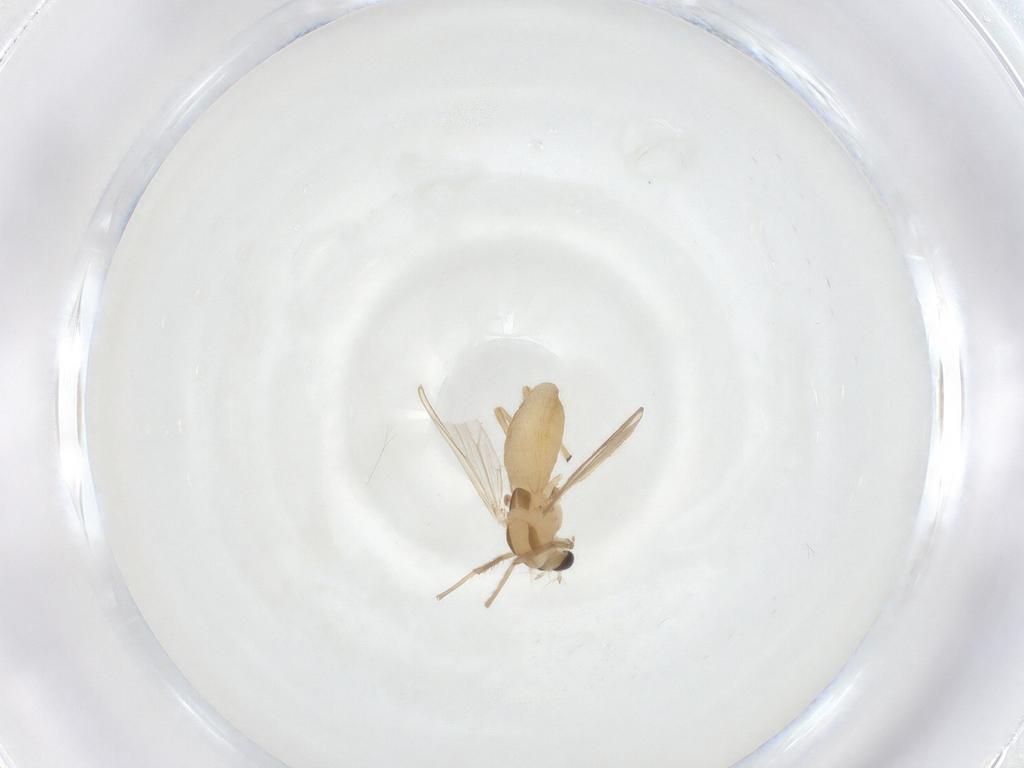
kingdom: Animalia
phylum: Arthropoda
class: Insecta
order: Diptera
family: Chironomidae
